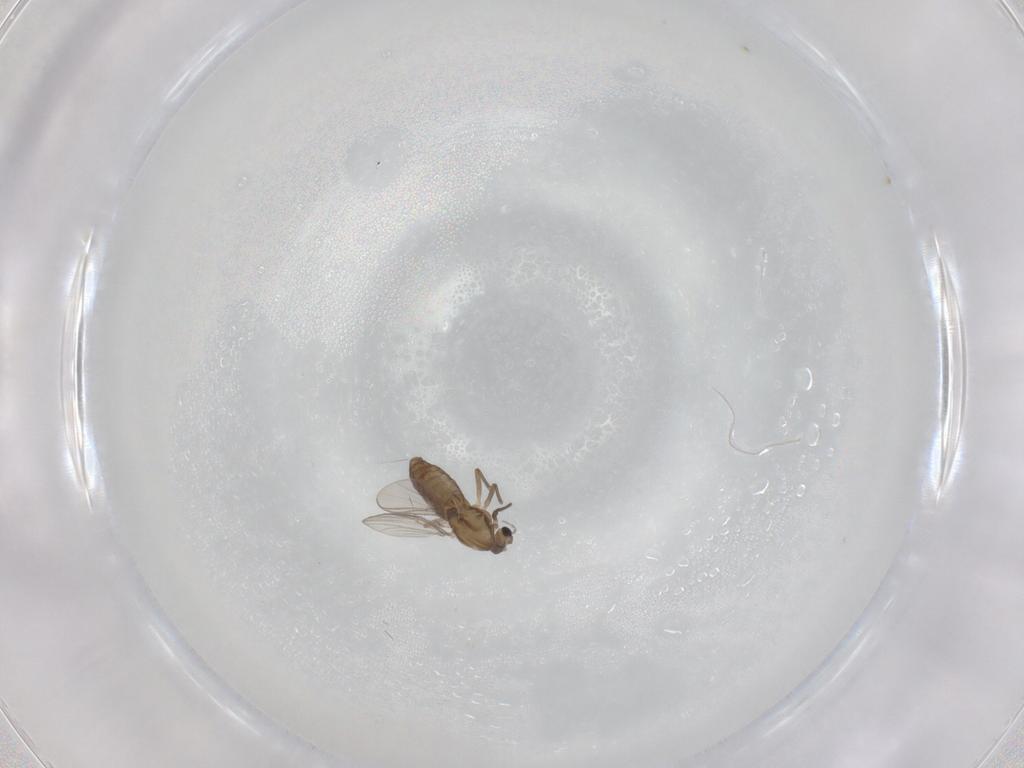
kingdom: Animalia
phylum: Arthropoda
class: Insecta
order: Diptera
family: Chironomidae
